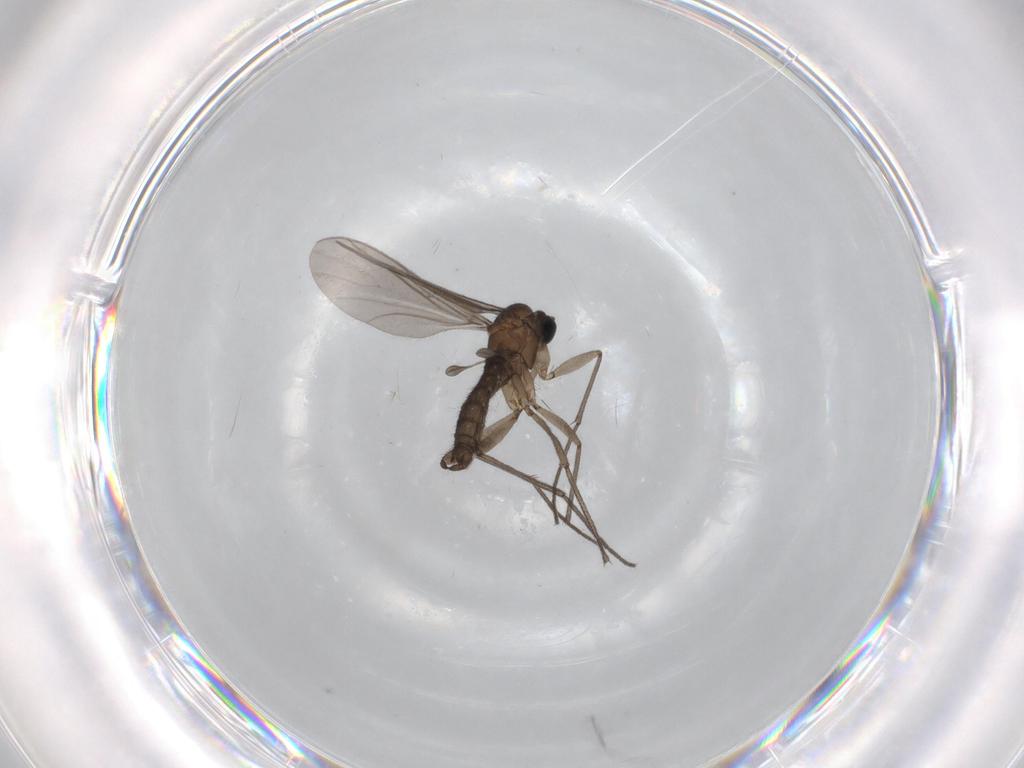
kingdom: Animalia
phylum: Arthropoda
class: Insecta
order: Diptera
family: Sciaridae
